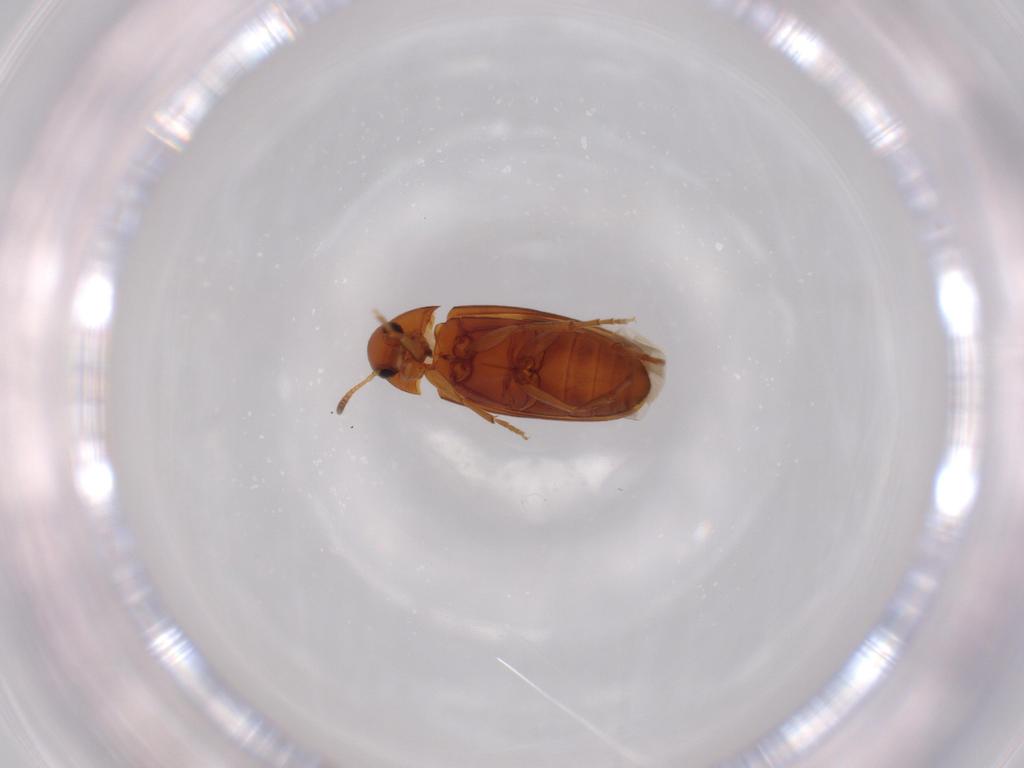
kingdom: Animalia
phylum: Arthropoda
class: Insecta
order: Coleoptera
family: Scraptiidae
